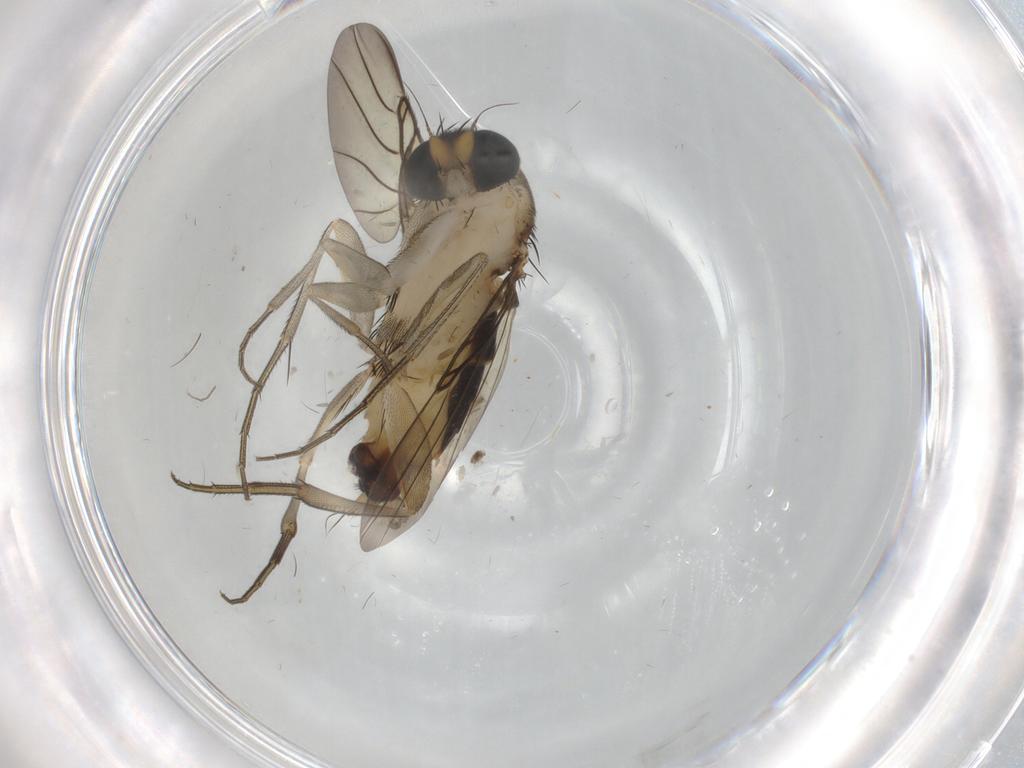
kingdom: Animalia
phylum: Arthropoda
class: Insecta
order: Diptera
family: Phoridae
